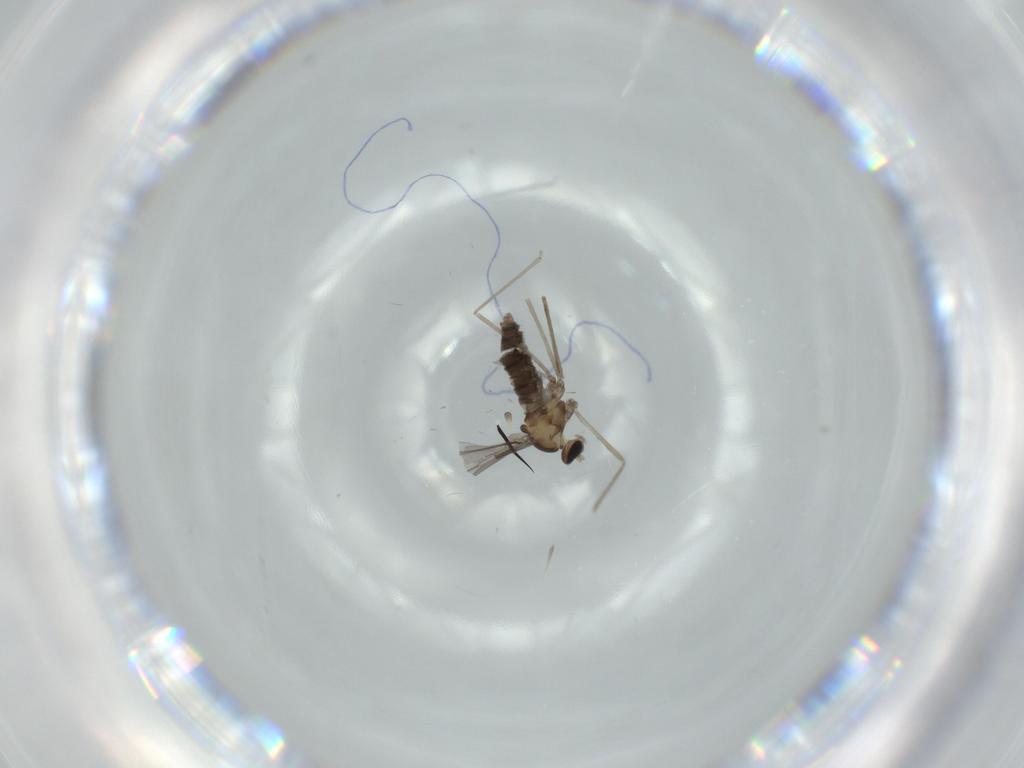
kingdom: Animalia
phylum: Arthropoda
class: Insecta
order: Diptera
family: Cecidomyiidae
